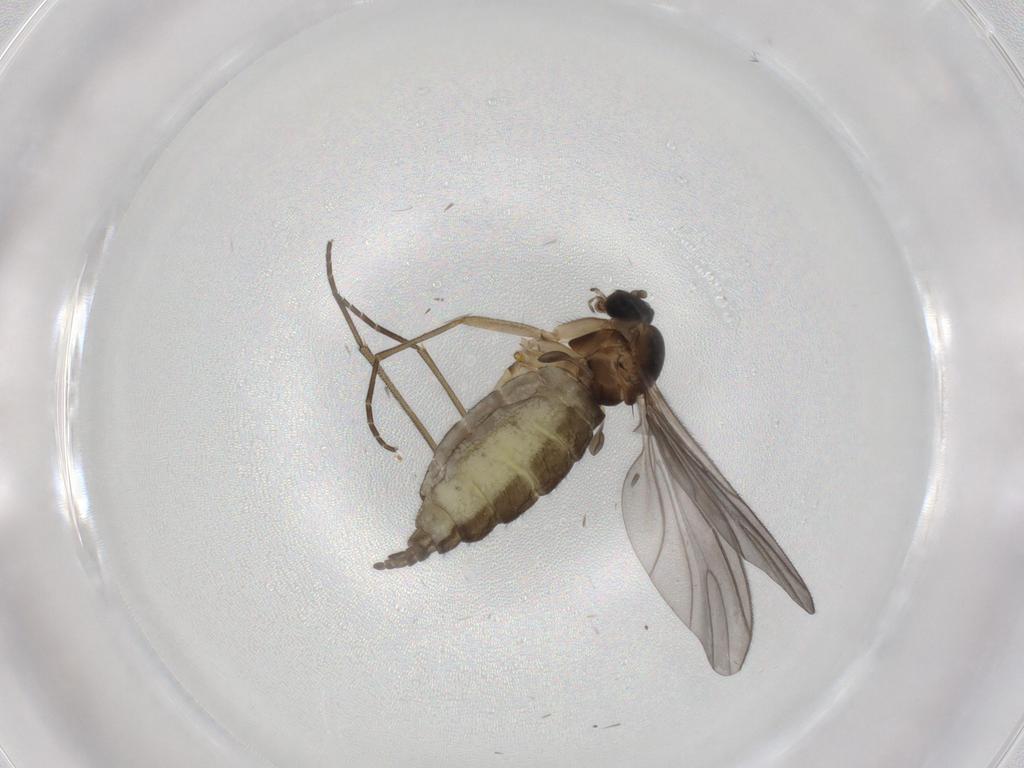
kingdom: Animalia
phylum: Arthropoda
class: Insecta
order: Diptera
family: Sciaridae
